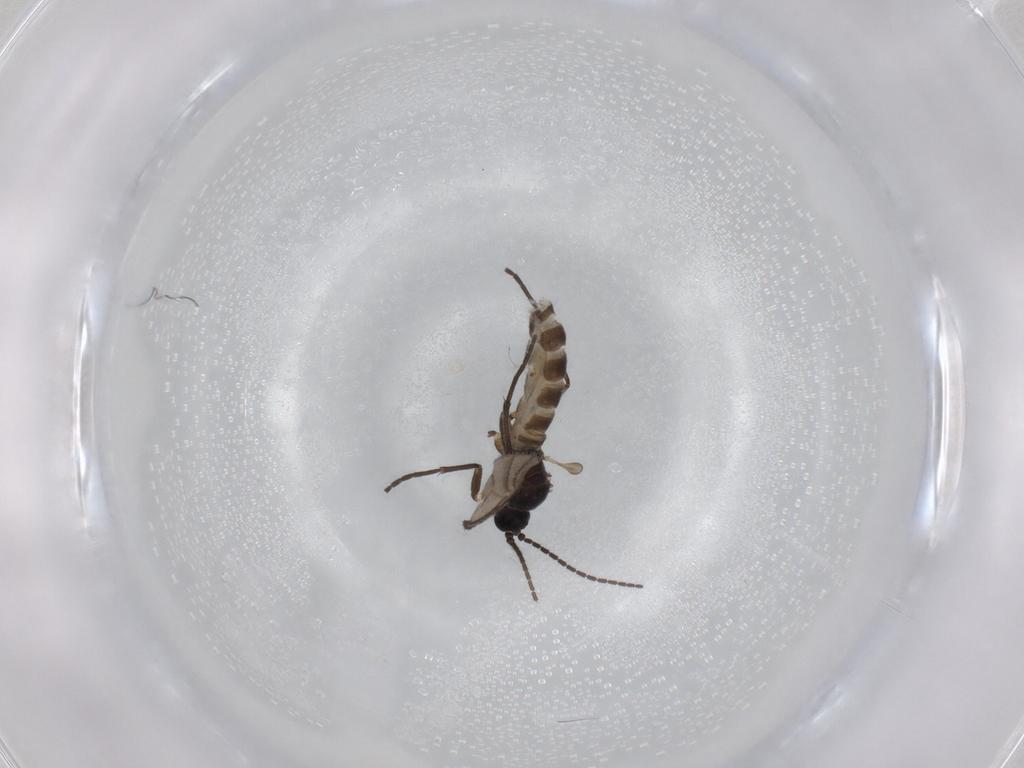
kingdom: Animalia
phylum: Arthropoda
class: Insecta
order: Diptera
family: Sciaridae
